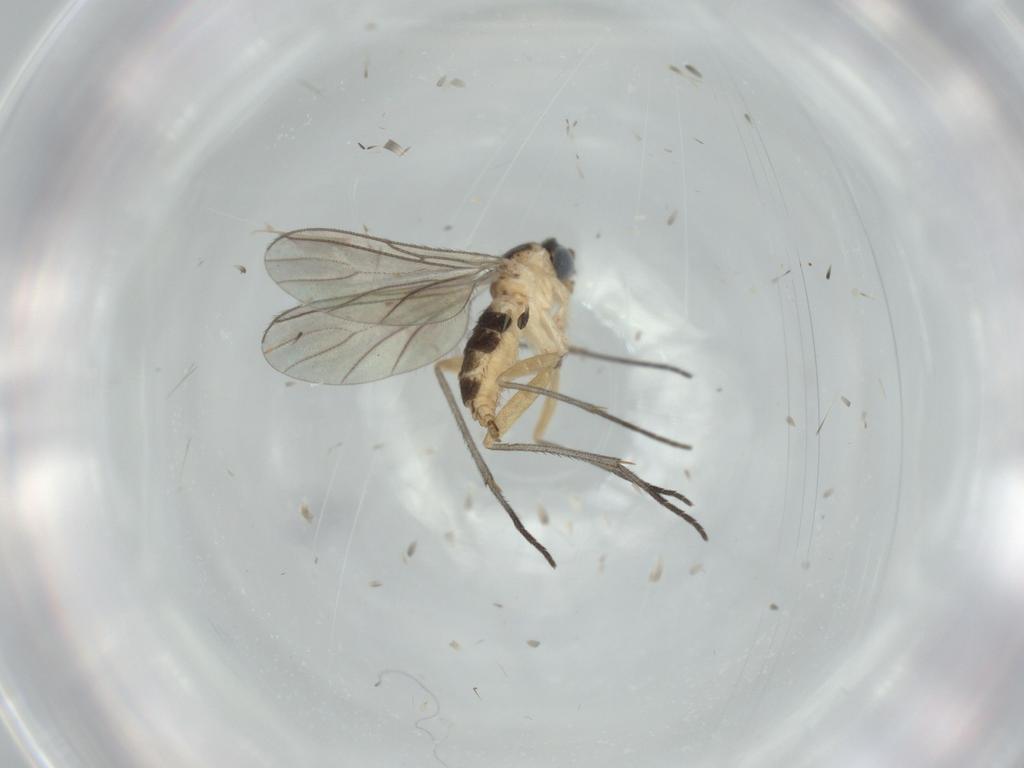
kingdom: Animalia
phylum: Arthropoda
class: Insecta
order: Diptera
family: Sciaridae
